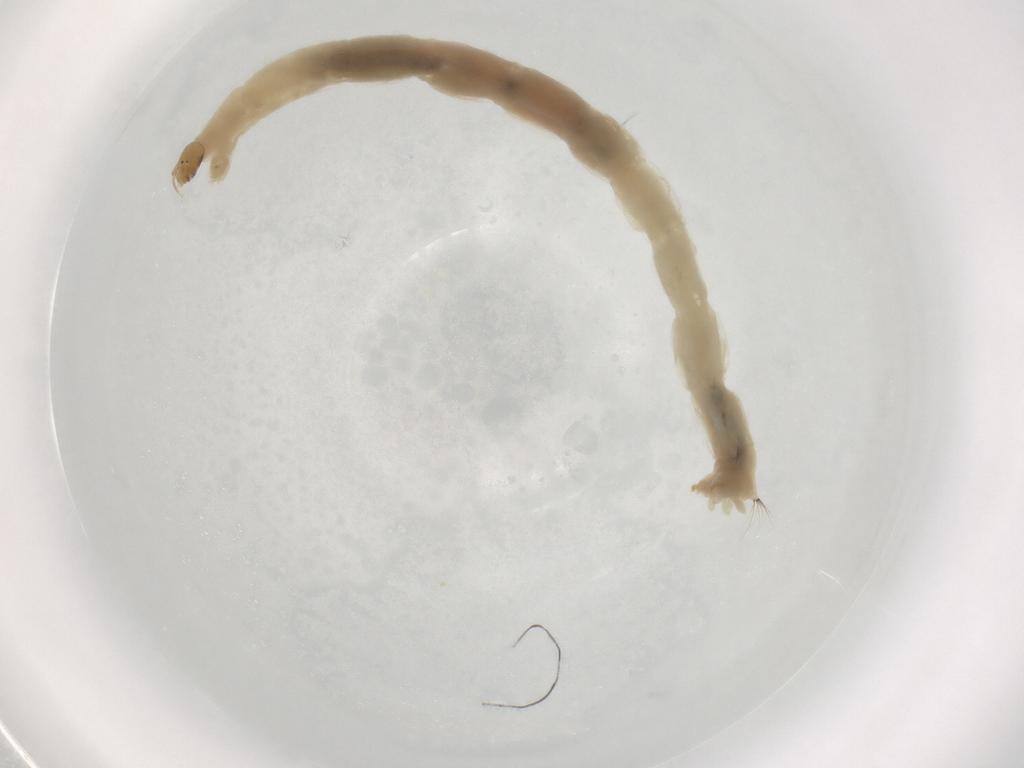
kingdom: Animalia
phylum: Arthropoda
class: Insecta
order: Diptera
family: Chironomidae
